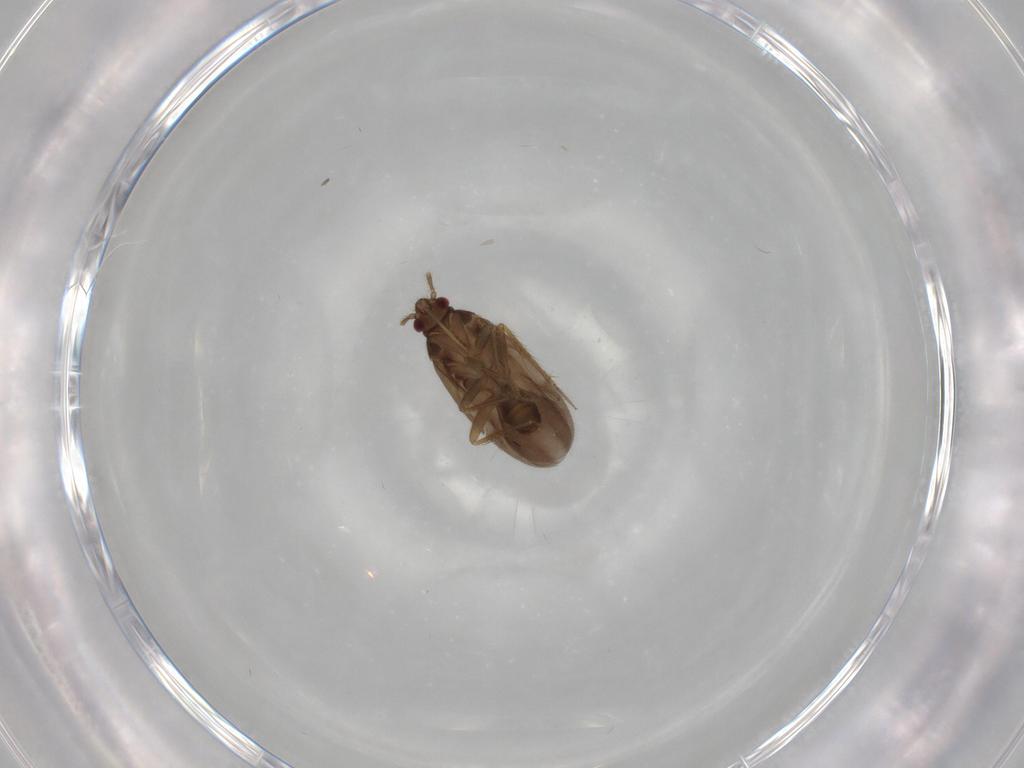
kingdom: Animalia
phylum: Arthropoda
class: Insecta
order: Hemiptera
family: Ceratocombidae
